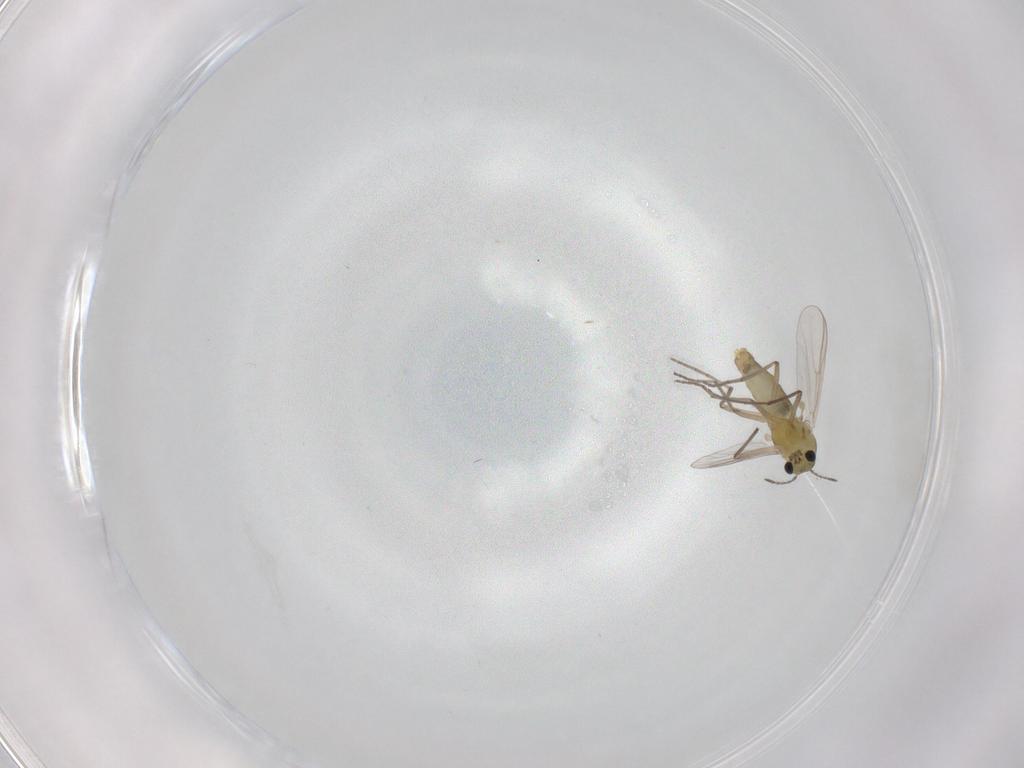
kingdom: Animalia
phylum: Arthropoda
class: Insecta
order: Diptera
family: Chironomidae
